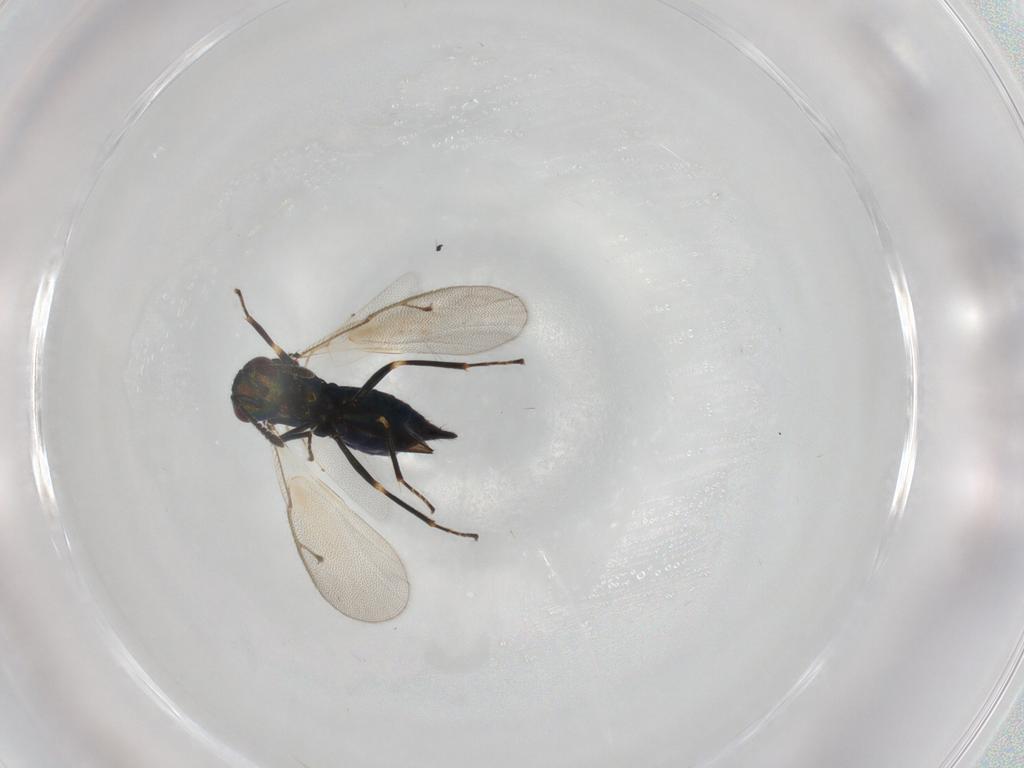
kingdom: Animalia
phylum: Arthropoda
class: Insecta
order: Hymenoptera
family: Pteromalidae
